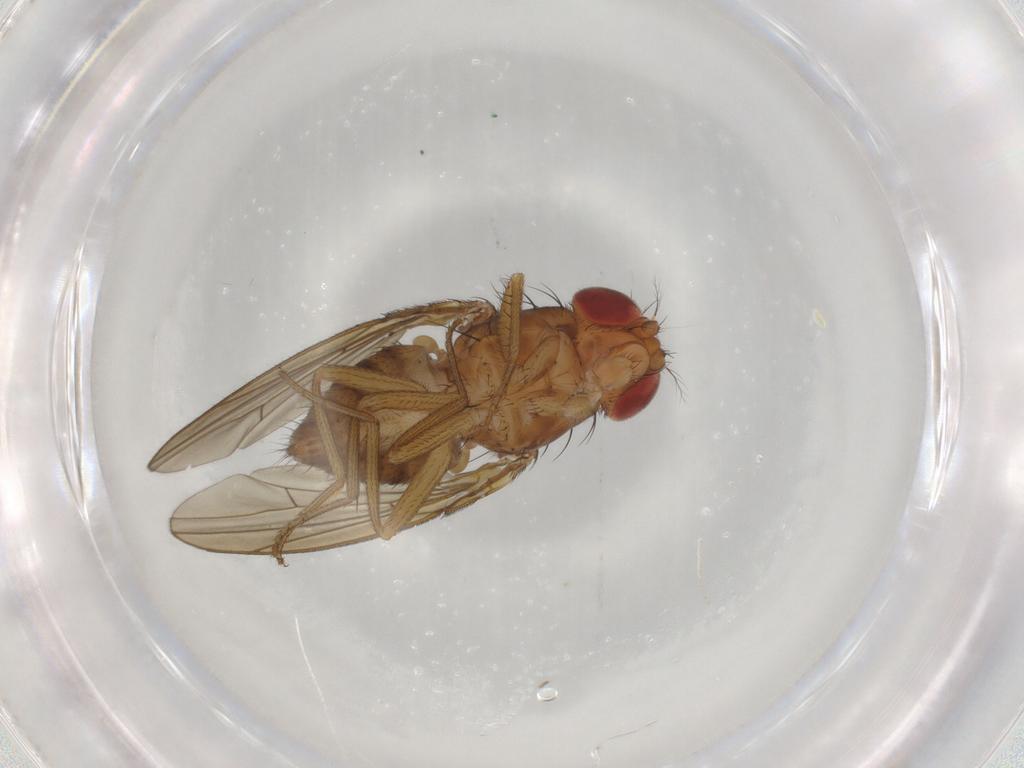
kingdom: Animalia
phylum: Arthropoda
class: Insecta
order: Diptera
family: Drosophilidae
